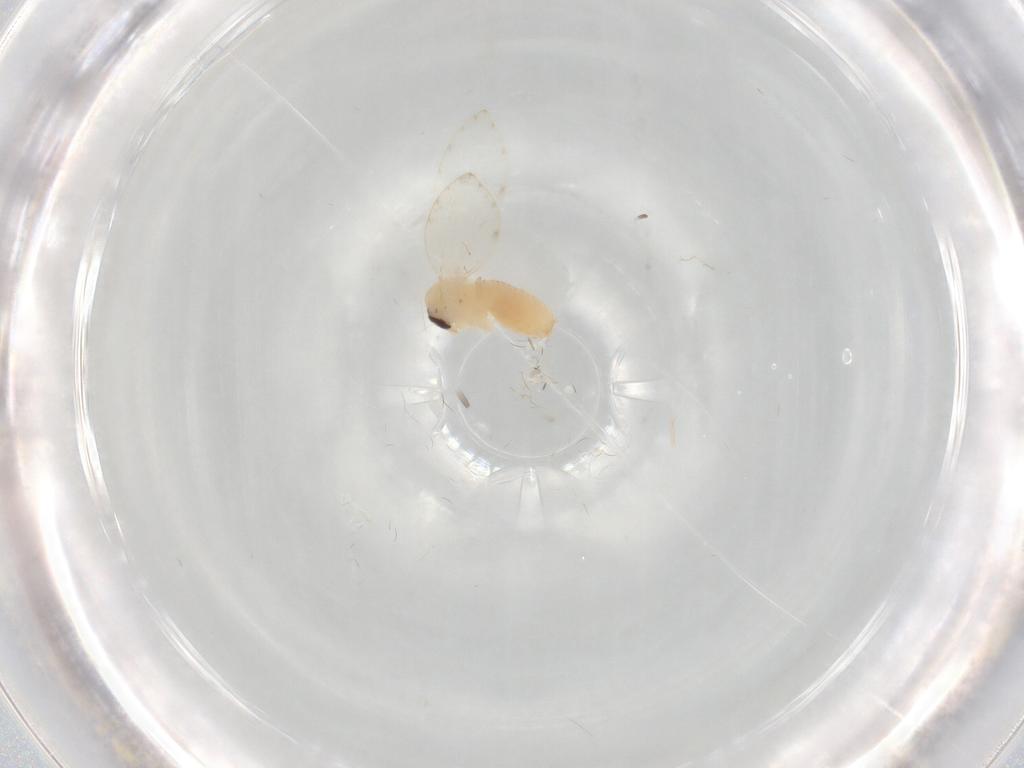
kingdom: Animalia
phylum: Arthropoda
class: Insecta
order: Diptera
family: Psychodidae
